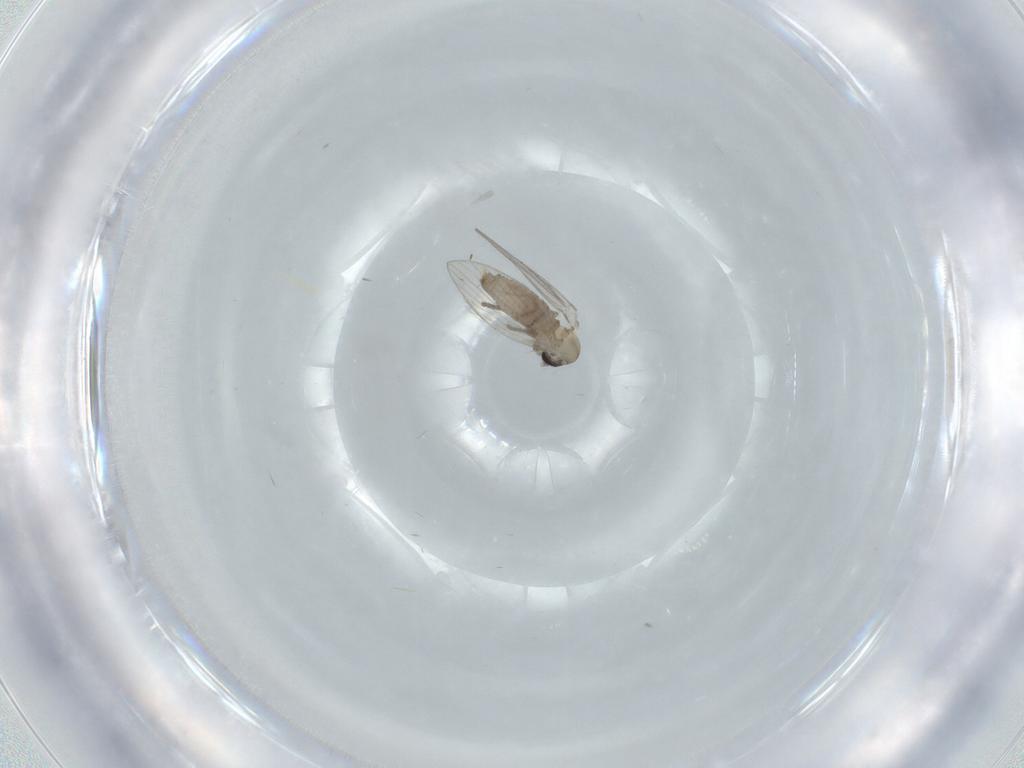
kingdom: Animalia
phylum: Arthropoda
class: Insecta
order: Diptera
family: Psychodidae
